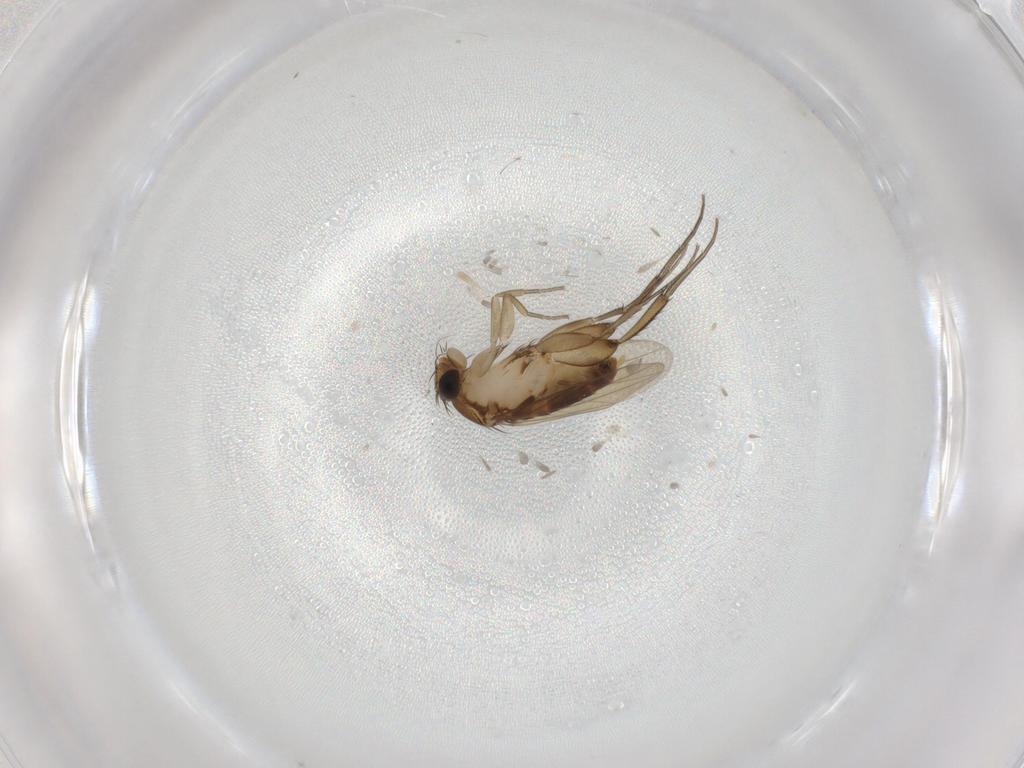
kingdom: Animalia
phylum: Arthropoda
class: Insecta
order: Diptera
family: Phoridae
